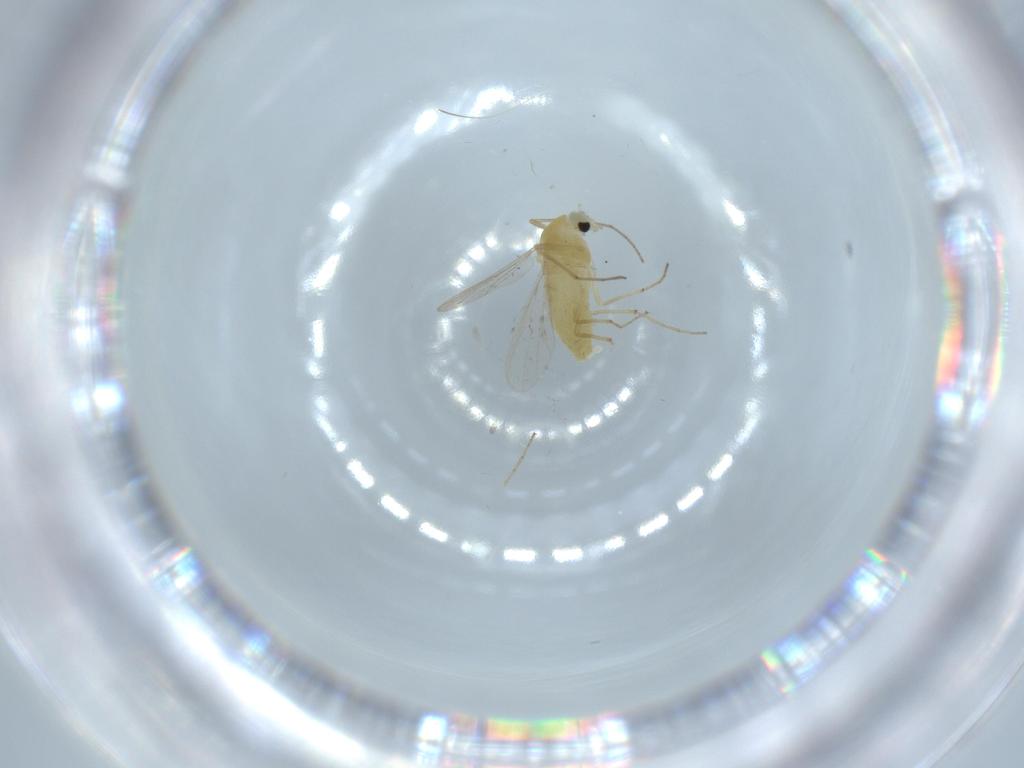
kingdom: Animalia
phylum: Arthropoda
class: Insecta
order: Diptera
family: Chironomidae
